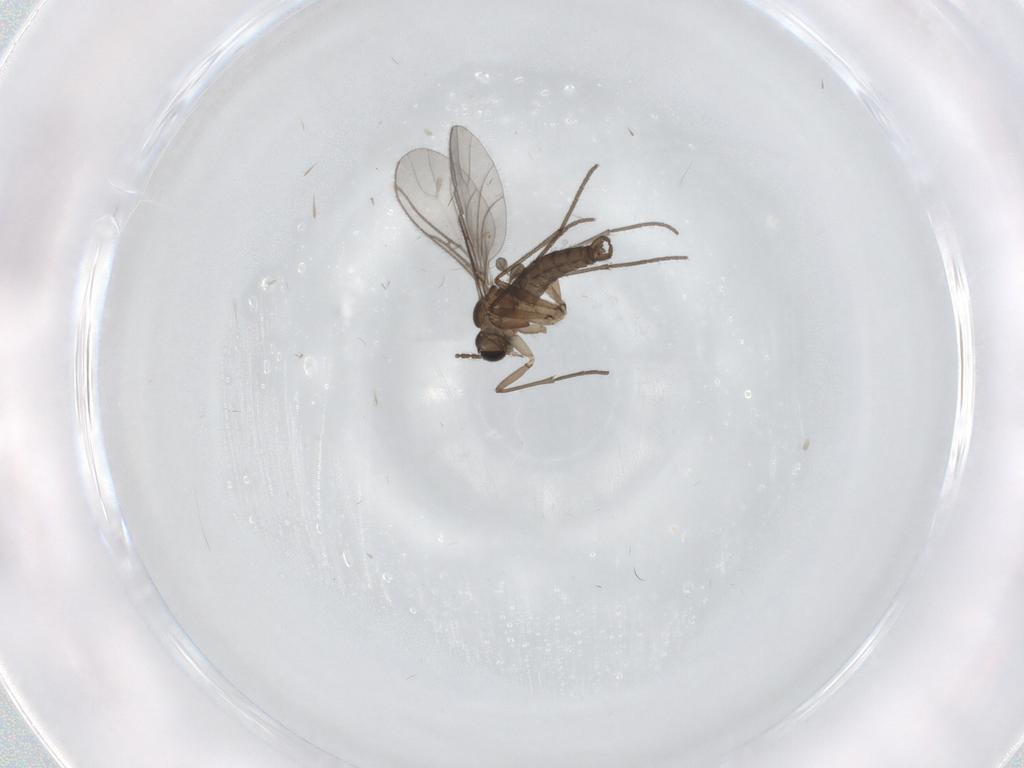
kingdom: Animalia
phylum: Arthropoda
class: Insecta
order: Diptera
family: Sciaridae
